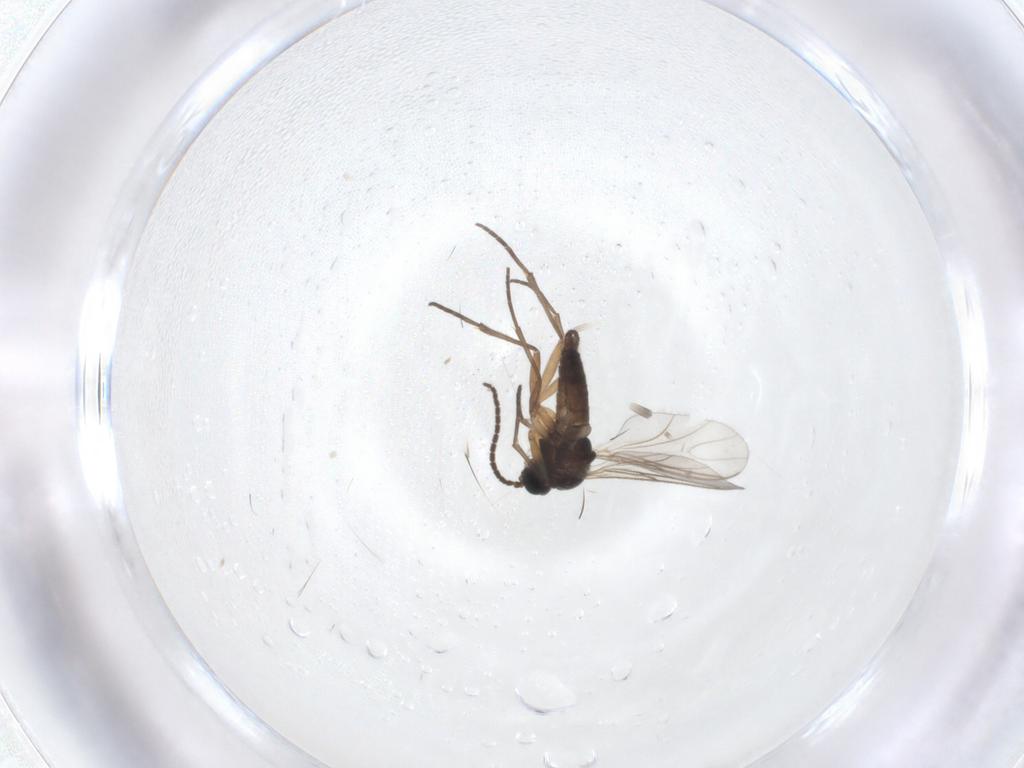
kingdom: Animalia
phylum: Arthropoda
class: Insecta
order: Diptera
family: Sciaridae
